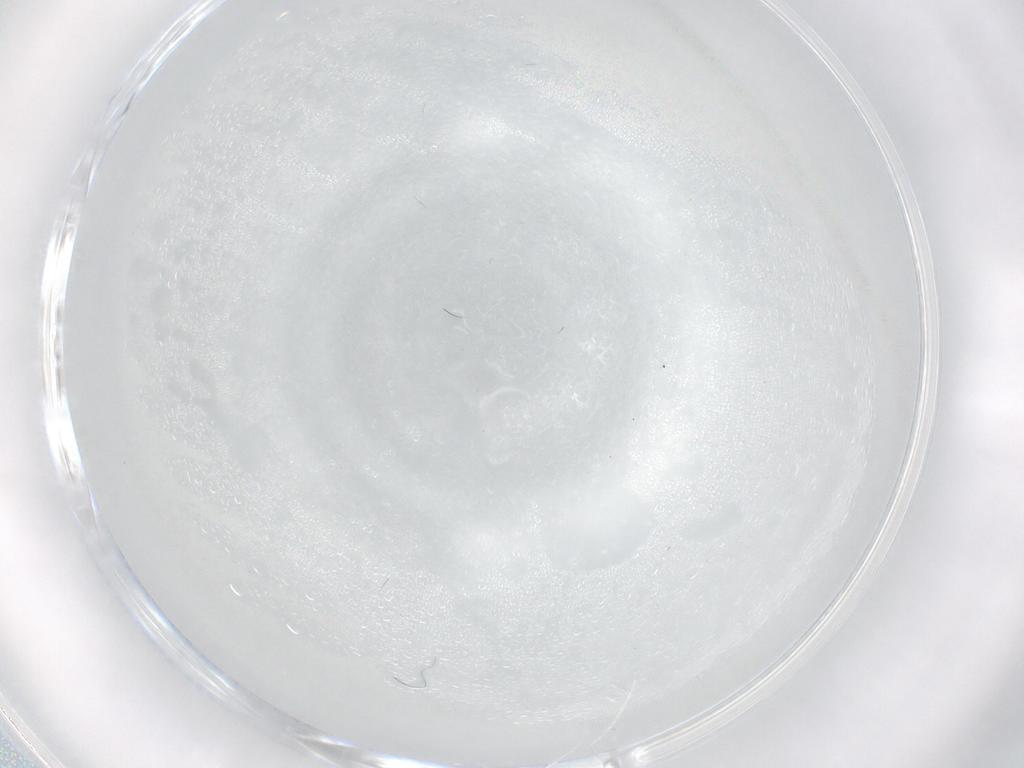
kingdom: Animalia
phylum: Arthropoda
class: Insecta
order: Diptera
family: Cecidomyiidae
